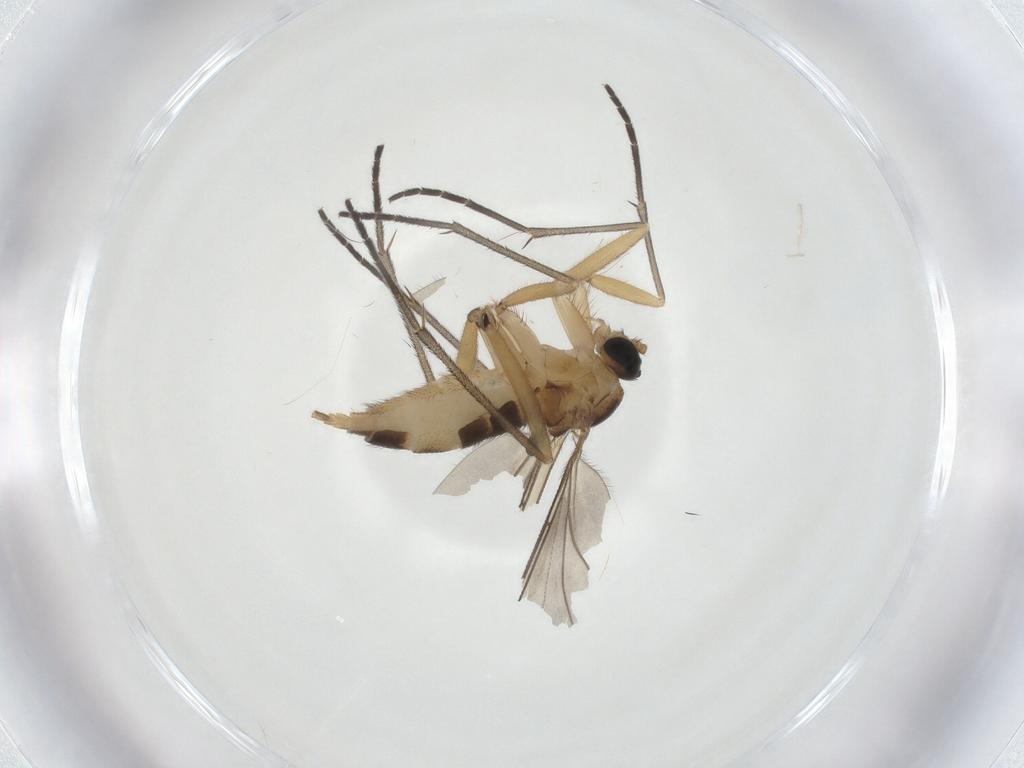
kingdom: Animalia
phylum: Arthropoda
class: Insecta
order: Diptera
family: Sciaridae
